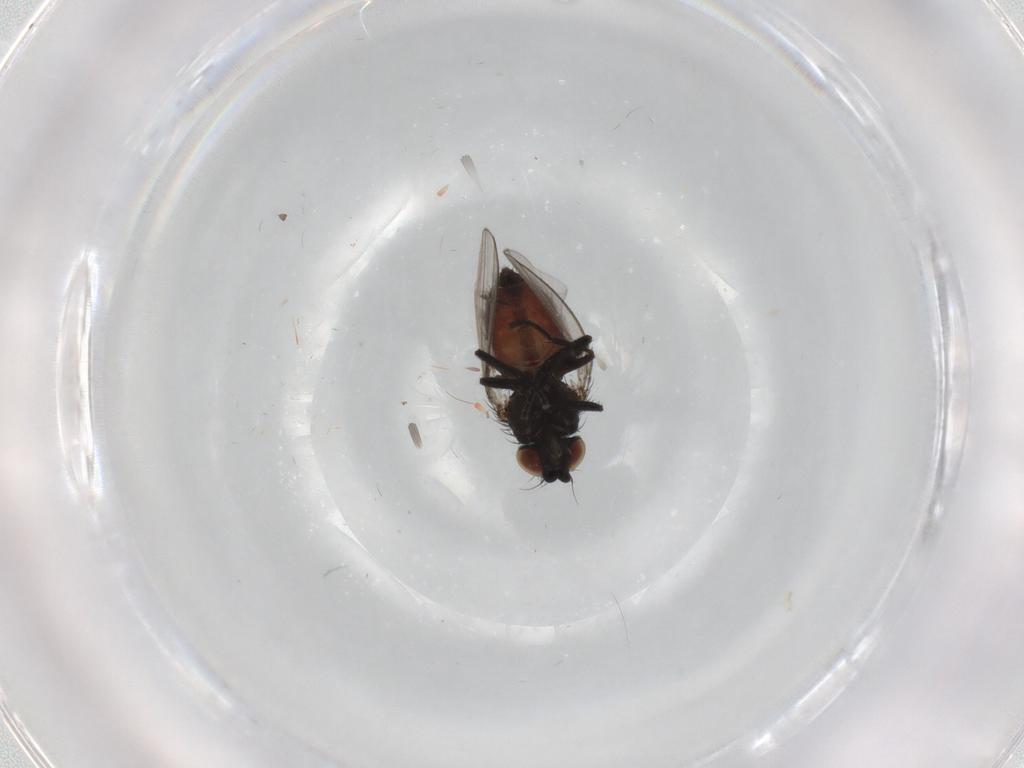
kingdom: Animalia
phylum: Arthropoda
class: Insecta
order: Diptera
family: Milichiidae
